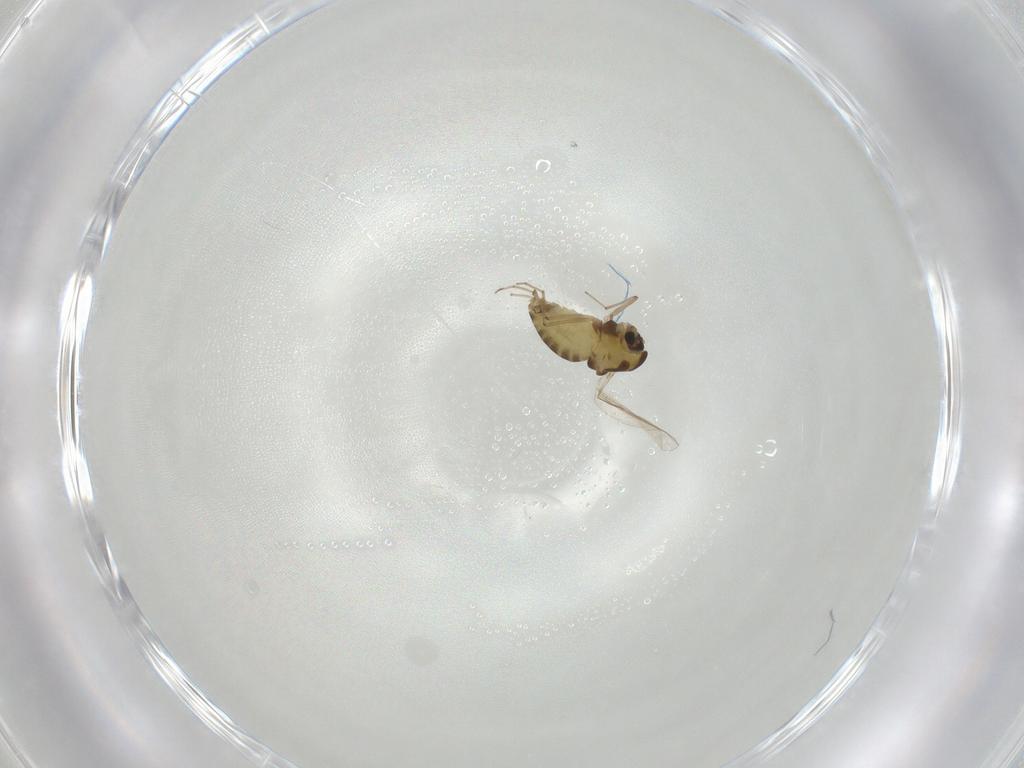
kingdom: Animalia
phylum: Arthropoda
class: Insecta
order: Diptera
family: Chironomidae
